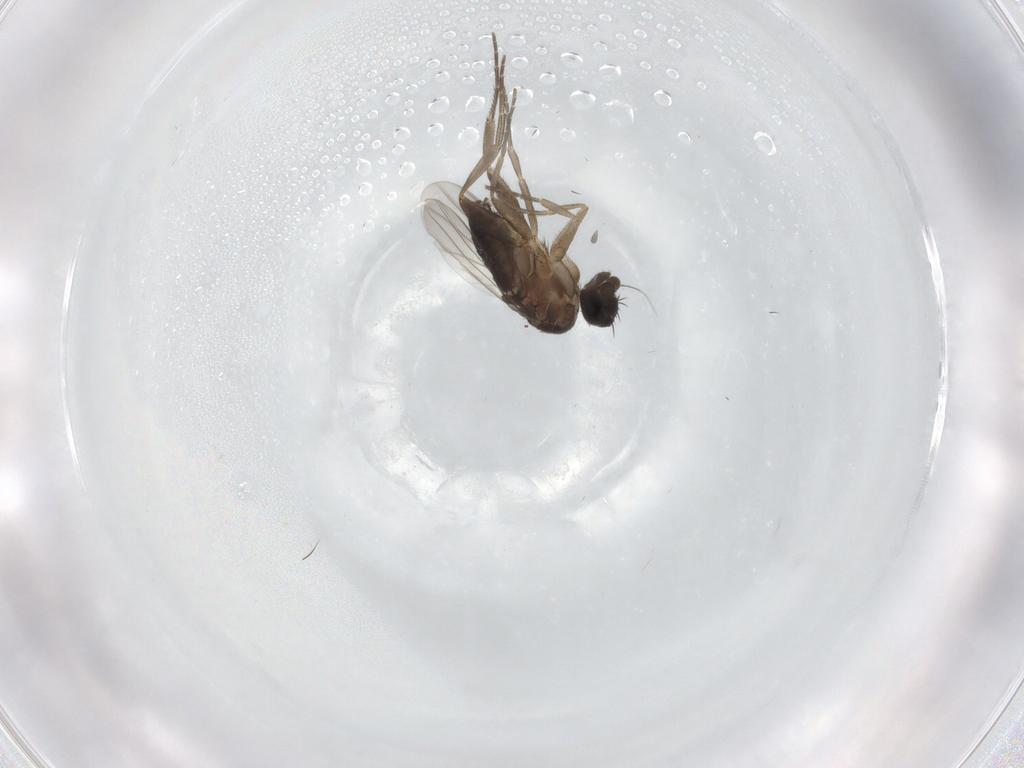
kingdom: Animalia
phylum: Arthropoda
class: Insecta
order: Diptera
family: Phoridae
